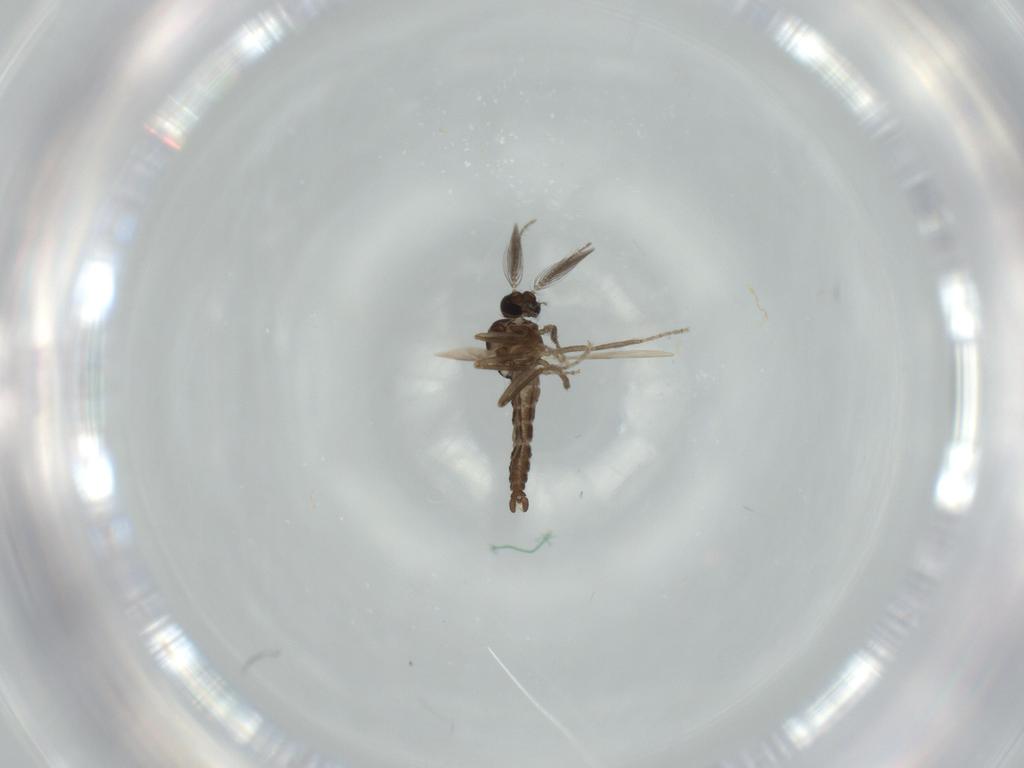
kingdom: Animalia
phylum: Arthropoda
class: Insecta
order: Diptera
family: Ceratopogonidae
